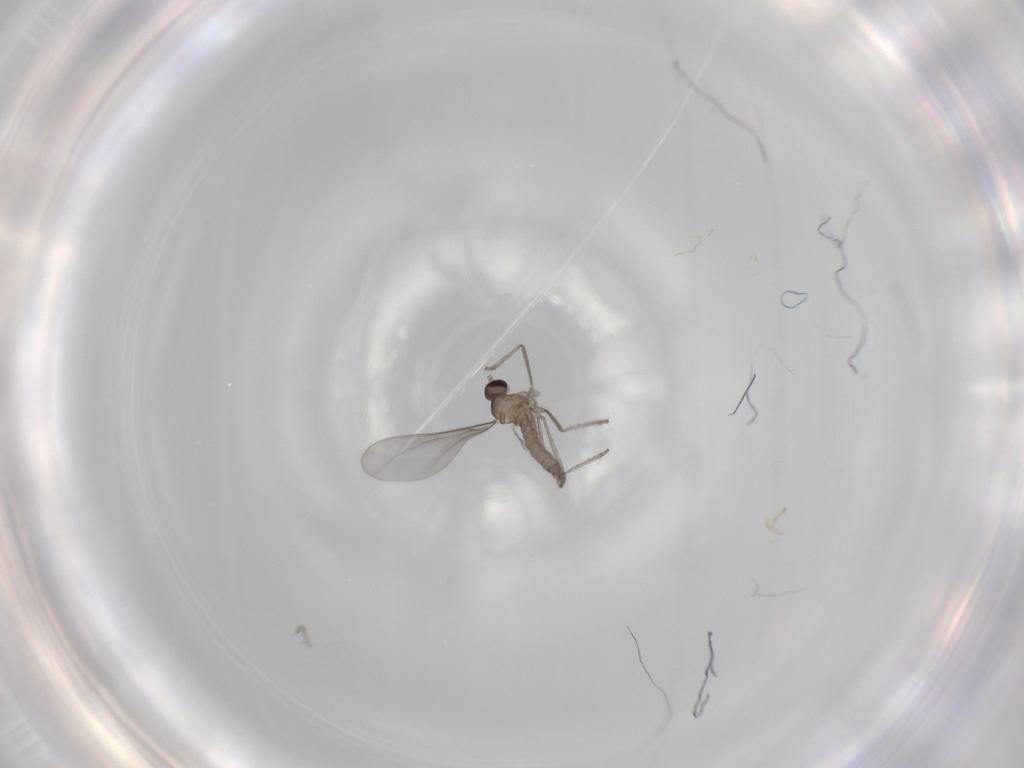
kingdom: Animalia
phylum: Arthropoda
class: Insecta
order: Diptera
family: Cecidomyiidae
